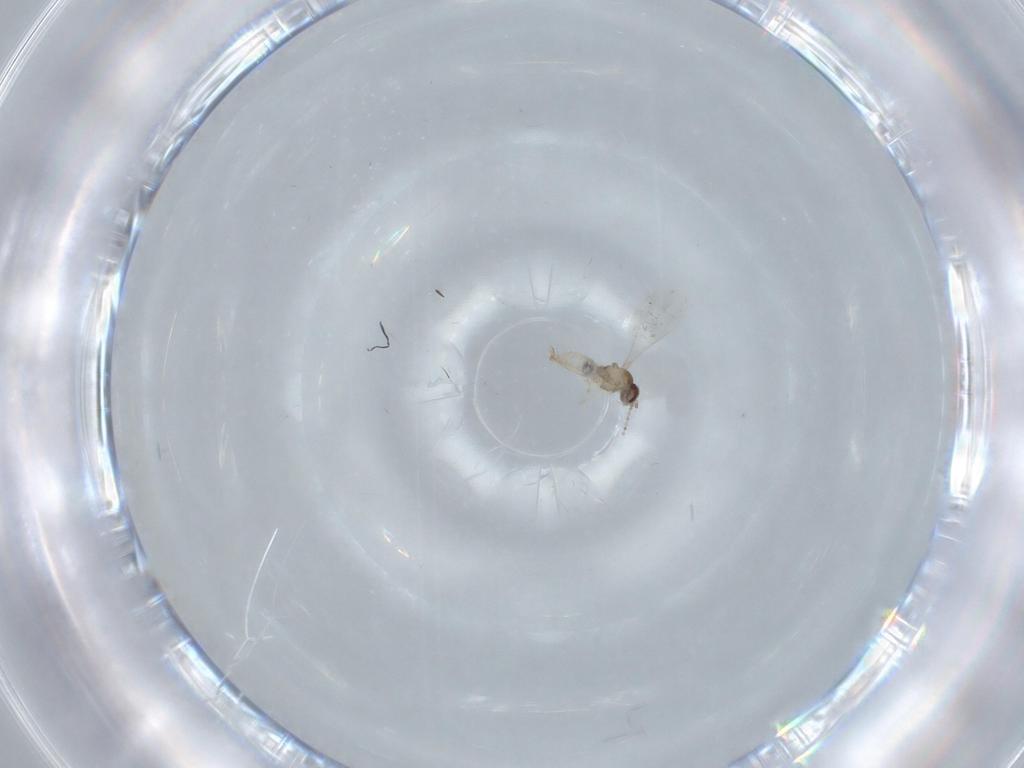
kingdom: Animalia
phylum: Arthropoda
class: Insecta
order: Diptera
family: Cecidomyiidae
